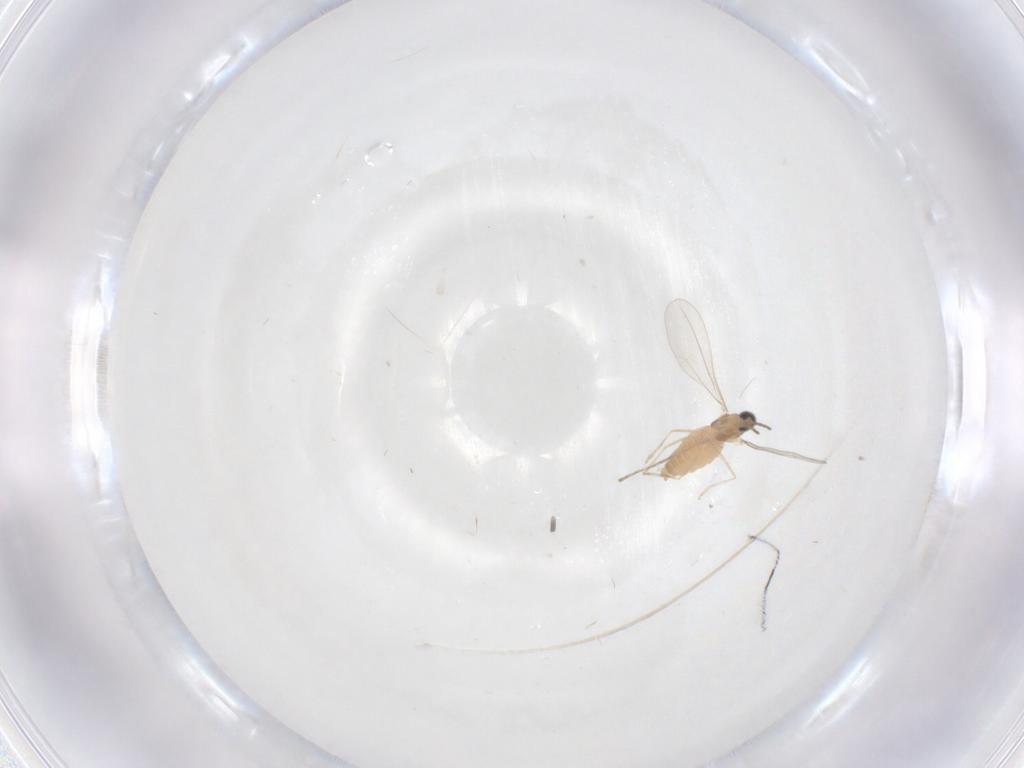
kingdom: Animalia
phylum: Arthropoda
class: Insecta
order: Diptera
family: Cecidomyiidae
